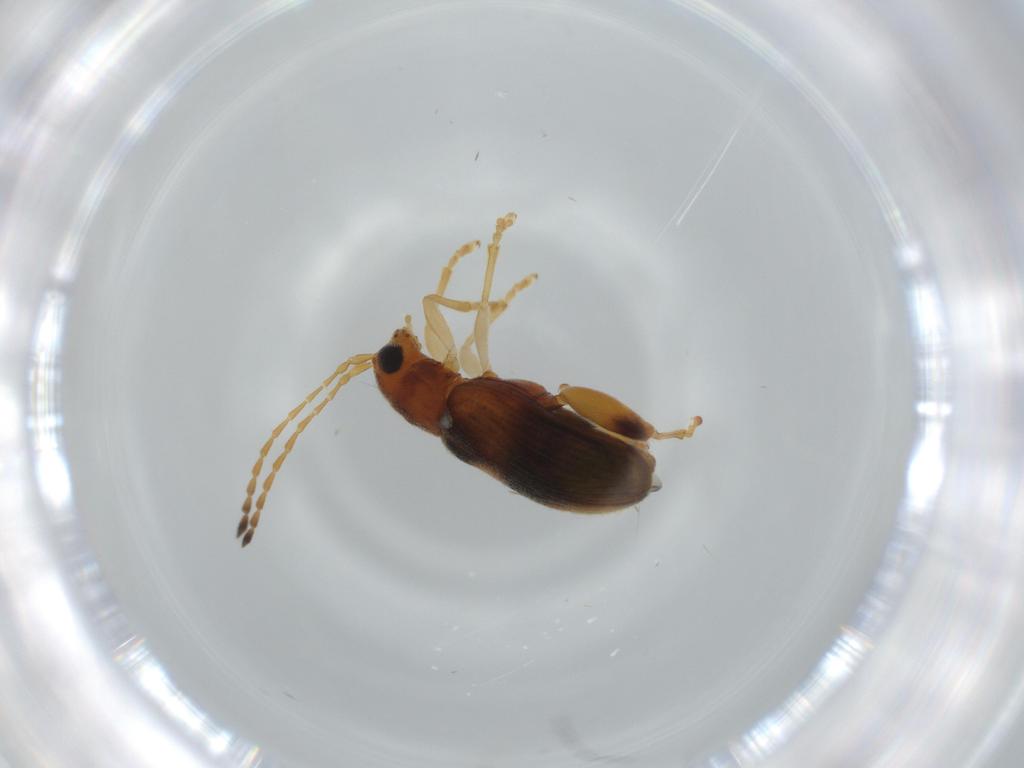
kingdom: Animalia
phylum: Arthropoda
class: Insecta
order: Coleoptera
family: Chrysomelidae
